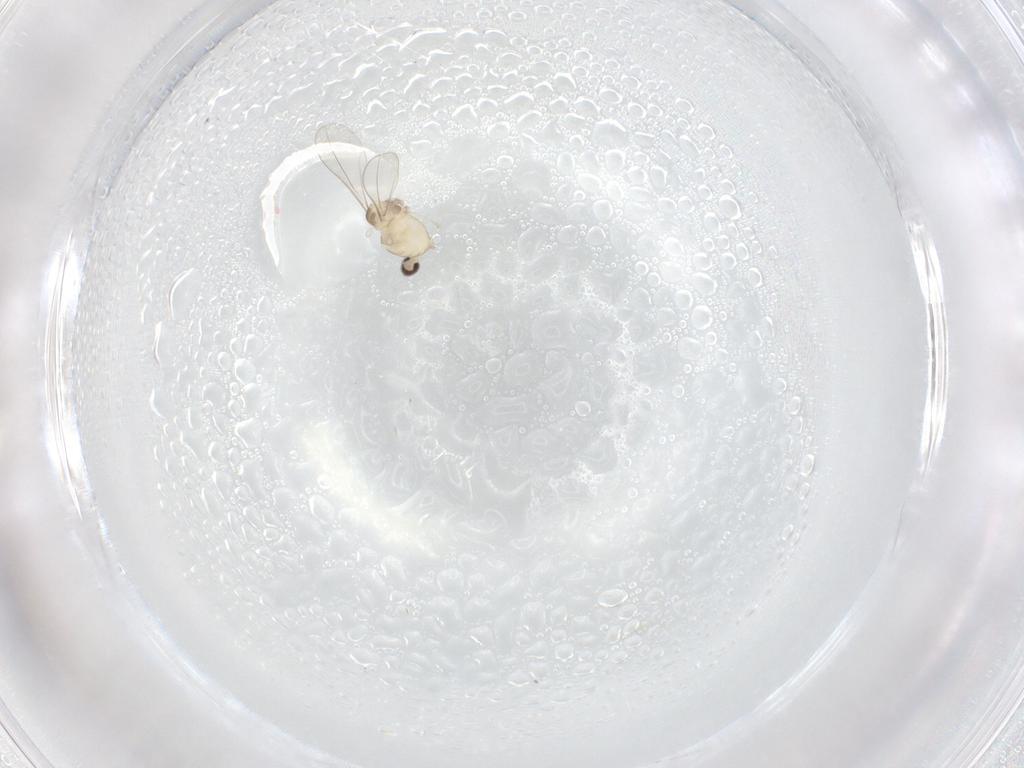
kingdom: Animalia
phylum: Arthropoda
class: Insecta
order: Diptera
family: Cecidomyiidae
